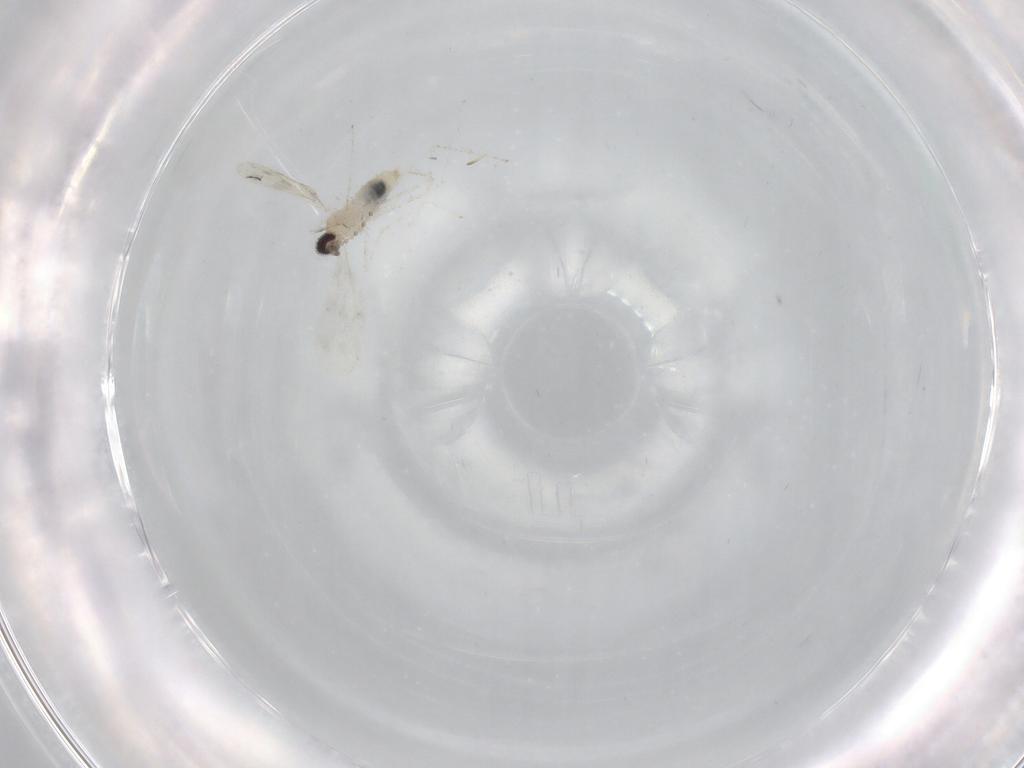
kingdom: Animalia
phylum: Arthropoda
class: Insecta
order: Diptera
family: Cecidomyiidae
